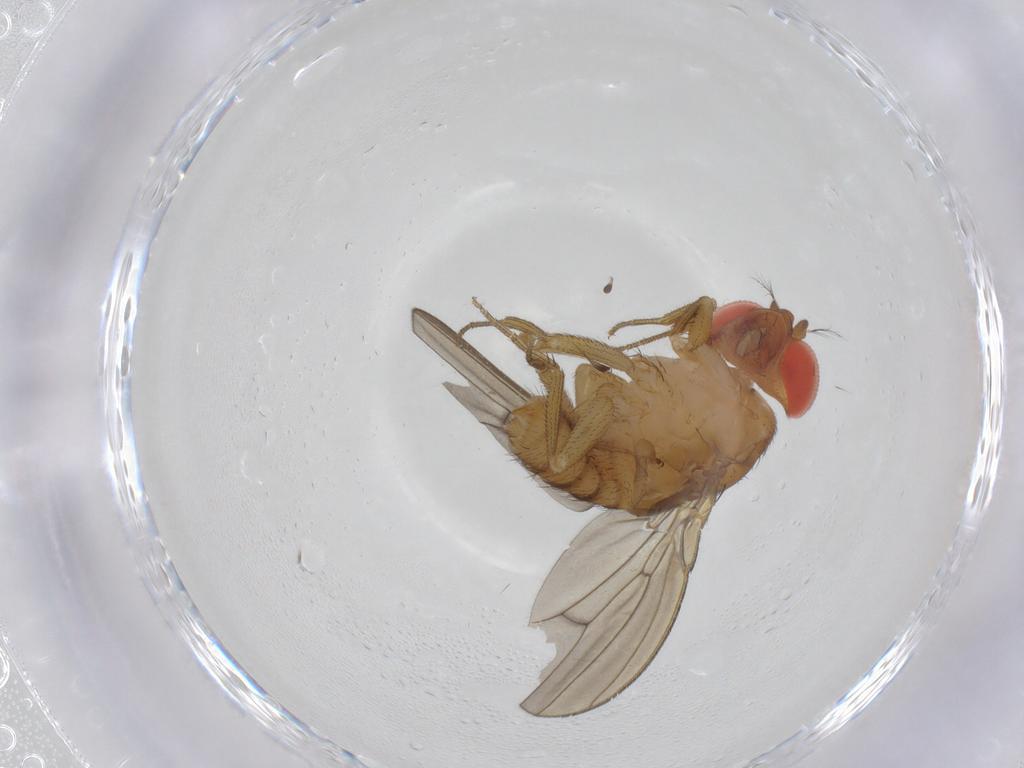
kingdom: Animalia
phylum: Arthropoda
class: Insecta
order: Diptera
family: Drosophilidae
